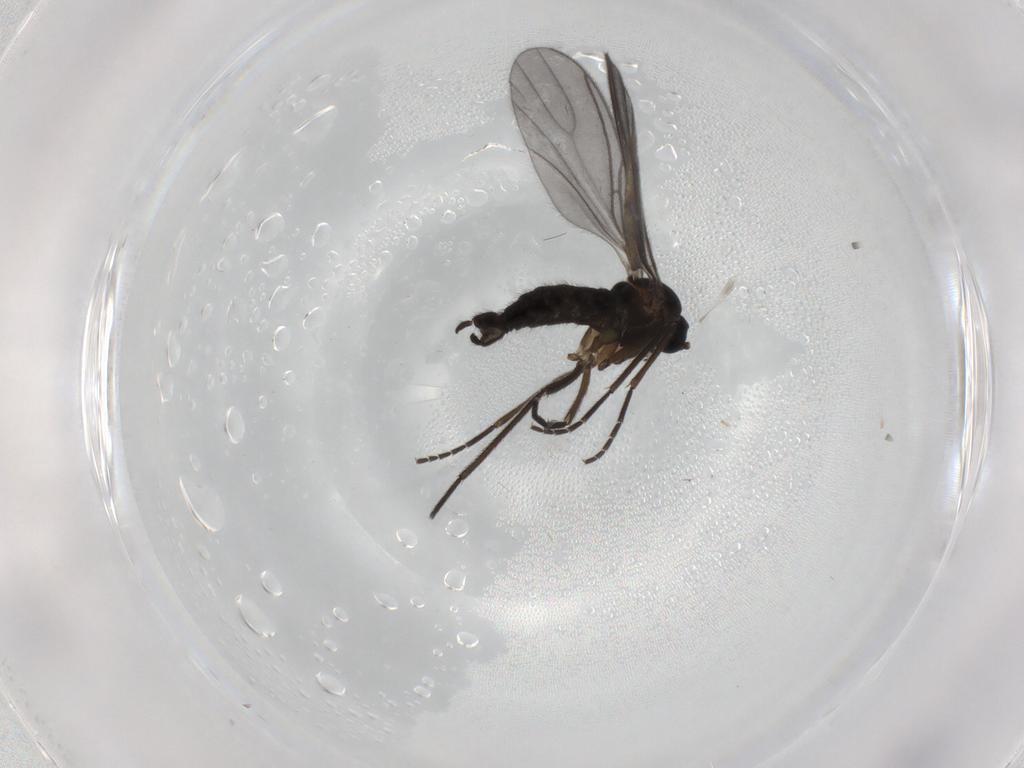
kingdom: Animalia
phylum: Arthropoda
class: Insecta
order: Diptera
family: Sciaridae
